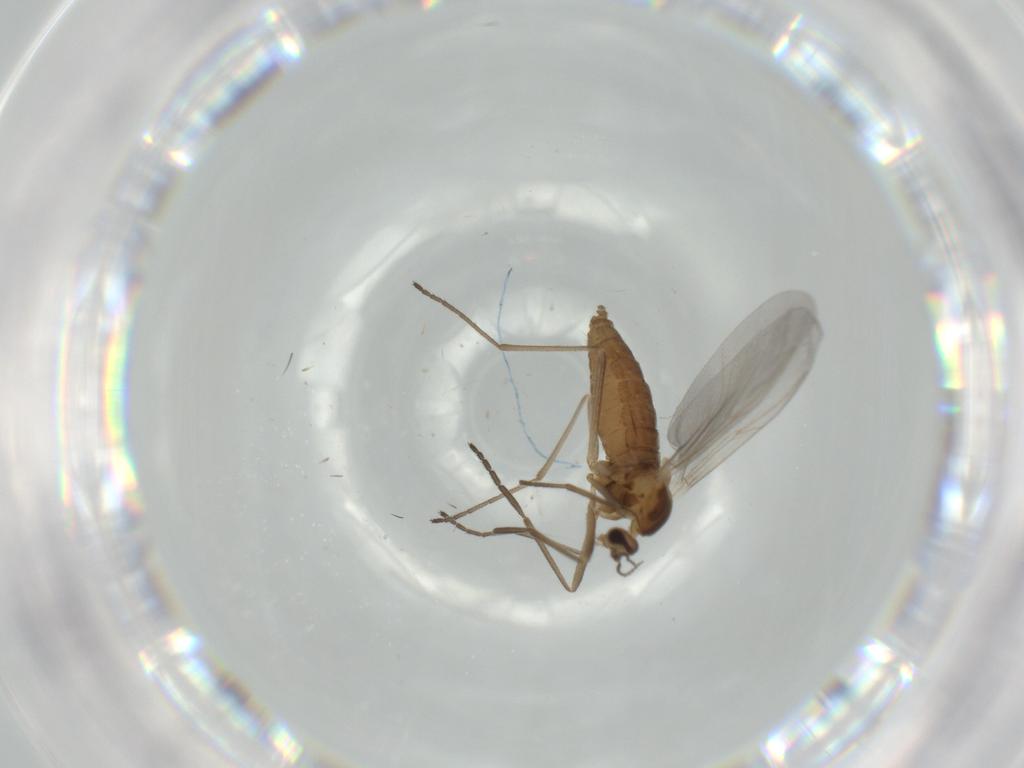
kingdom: Animalia
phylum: Arthropoda
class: Insecta
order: Diptera
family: Cecidomyiidae
